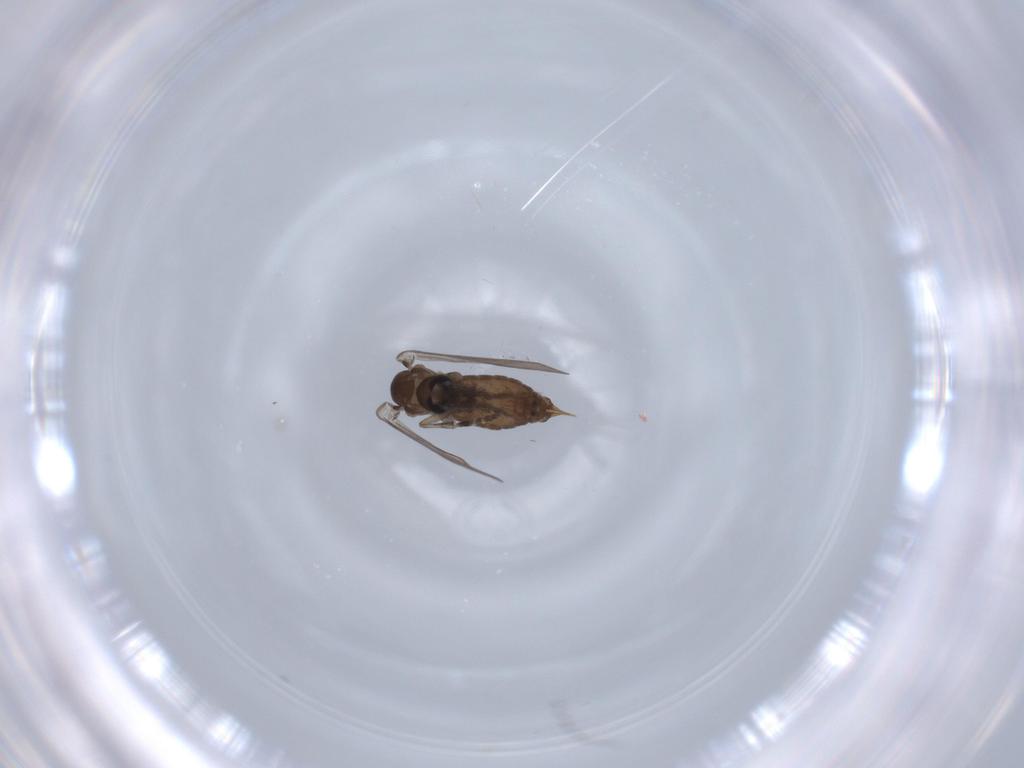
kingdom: Animalia
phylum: Arthropoda
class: Insecta
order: Diptera
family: Psychodidae
